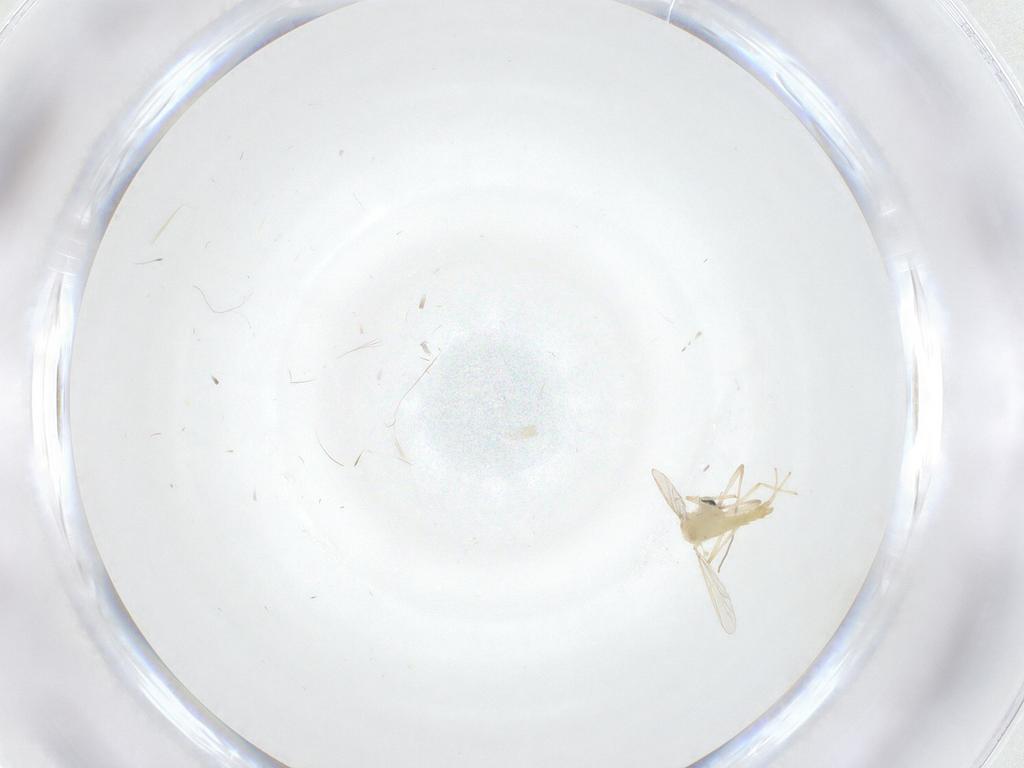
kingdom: Animalia
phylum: Arthropoda
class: Insecta
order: Diptera
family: Chironomidae
